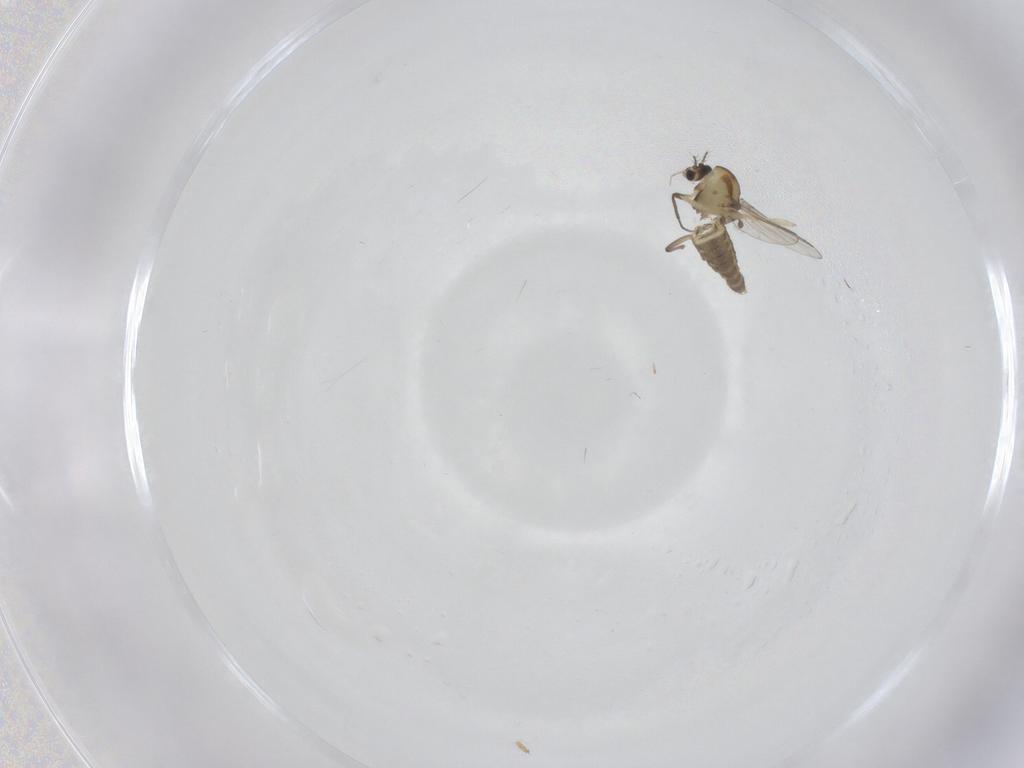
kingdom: Animalia
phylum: Arthropoda
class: Insecta
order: Diptera
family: Chironomidae
